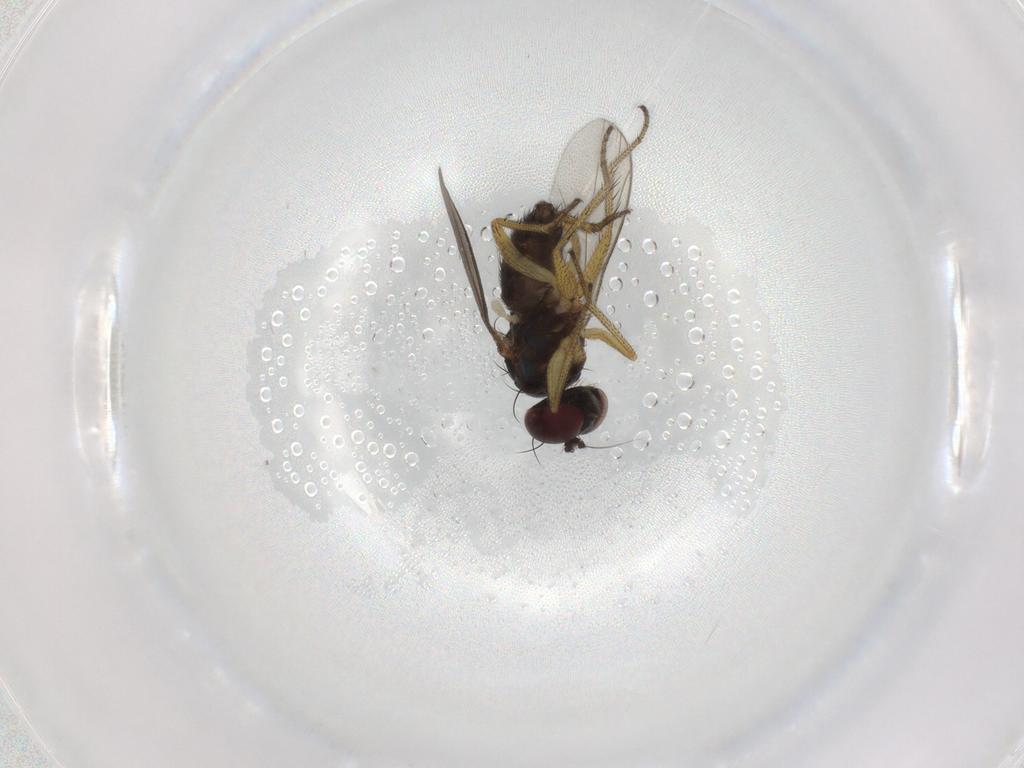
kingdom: Animalia
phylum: Arthropoda
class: Insecta
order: Diptera
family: Dolichopodidae
